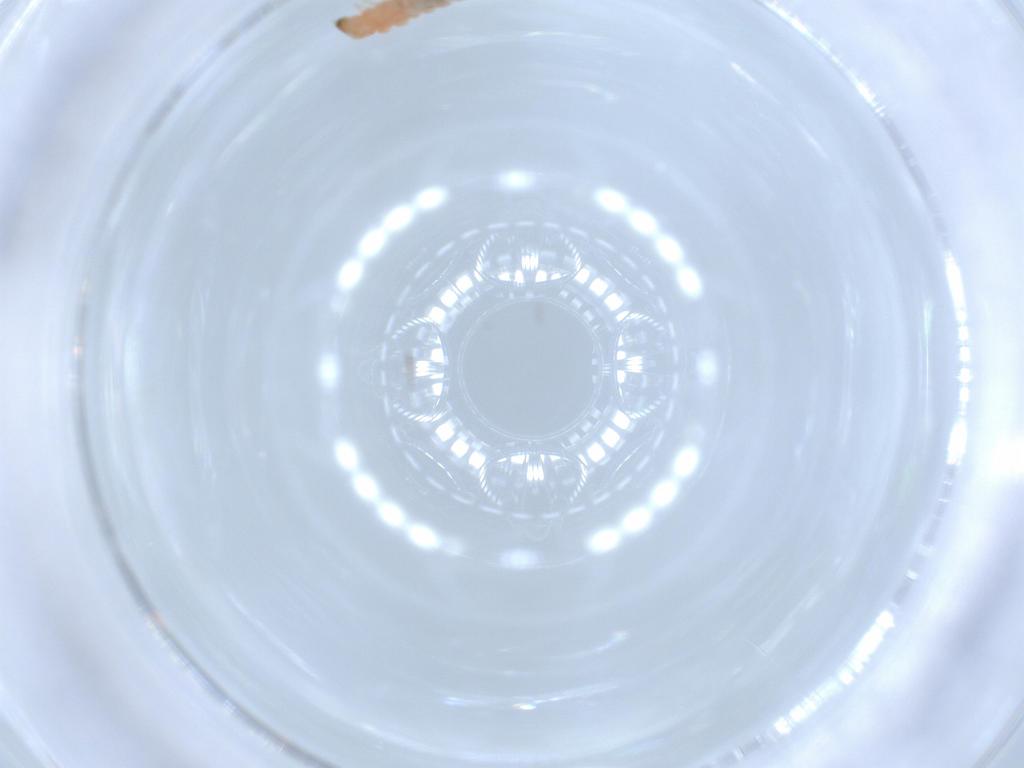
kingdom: Animalia
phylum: Arthropoda
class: Insecta
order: Coleoptera
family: Melyridae
